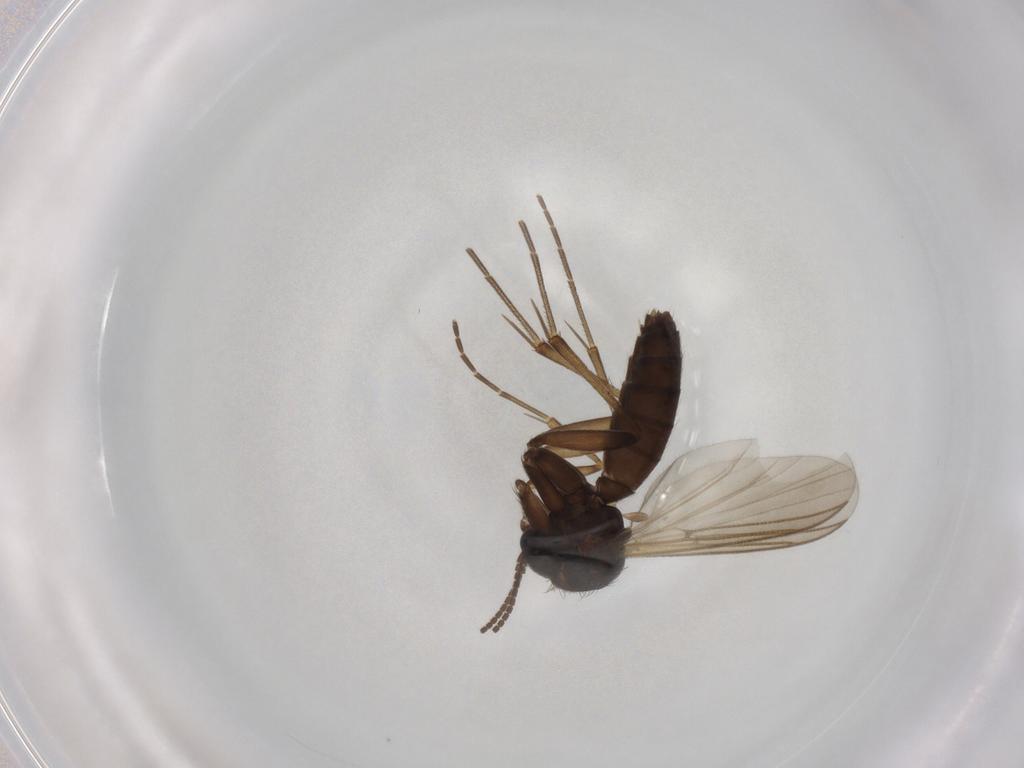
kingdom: Animalia
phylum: Arthropoda
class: Insecta
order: Diptera
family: Mycetophilidae
